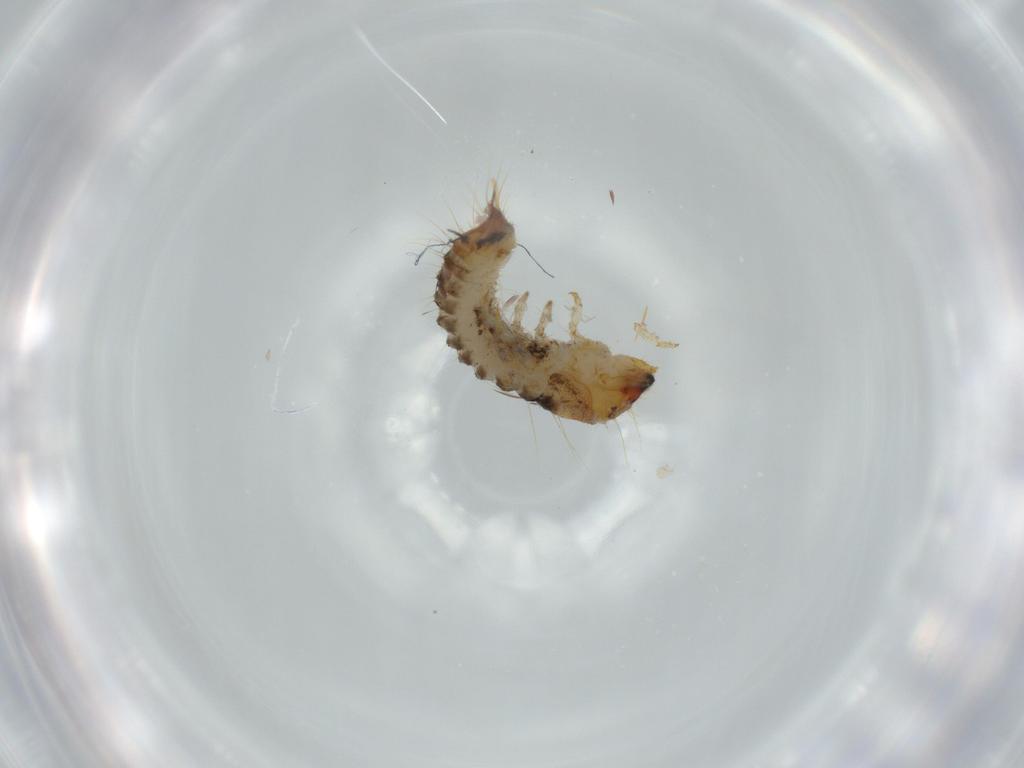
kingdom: Animalia
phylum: Arthropoda
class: Insecta
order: Coleoptera
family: Lymexylidae
